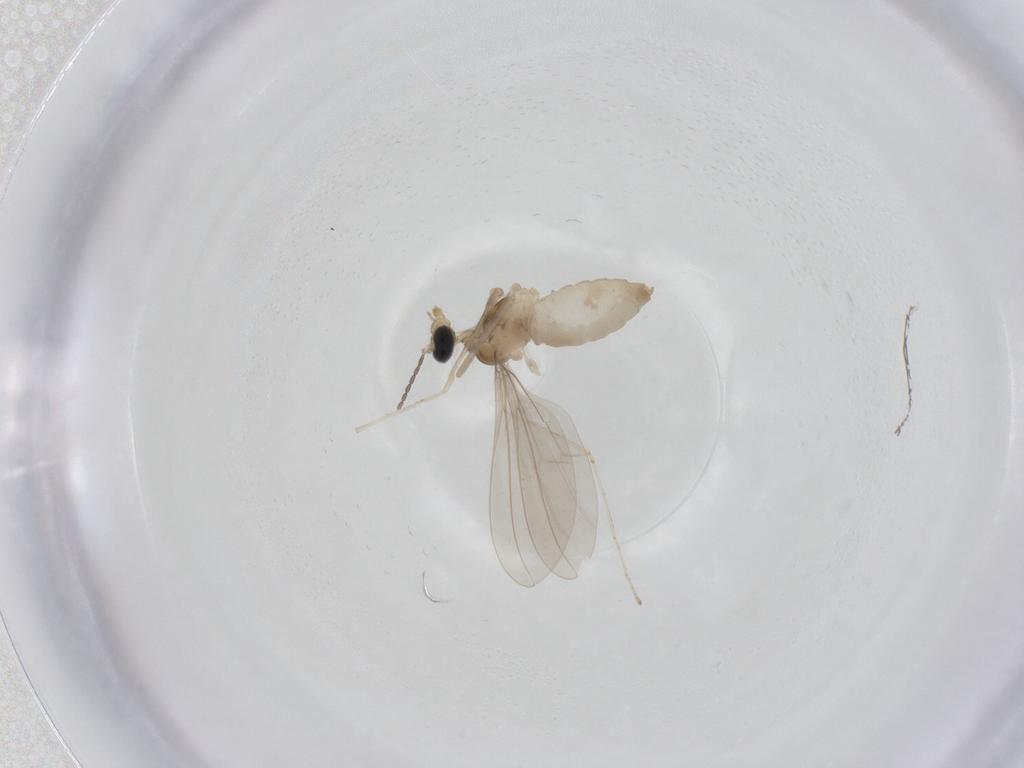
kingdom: Animalia
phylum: Arthropoda
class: Insecta
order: Diptera
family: Cecidomyiidae
